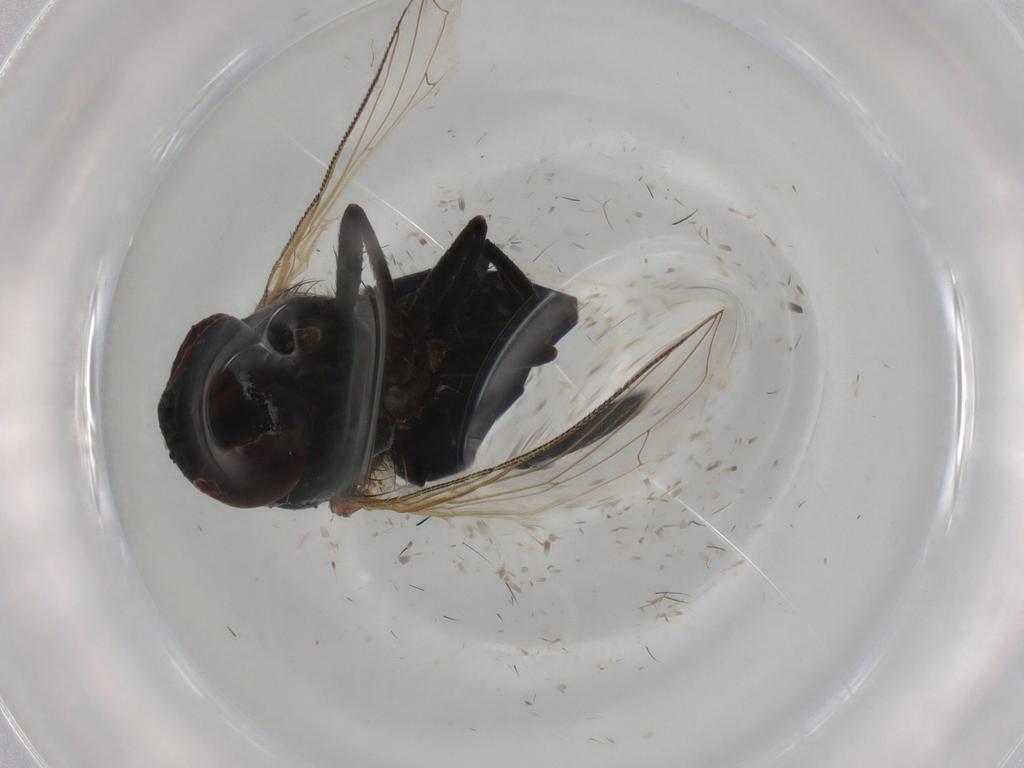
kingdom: Animalia
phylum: Arthropoda
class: Insecta
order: Diptera
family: Muscidae
